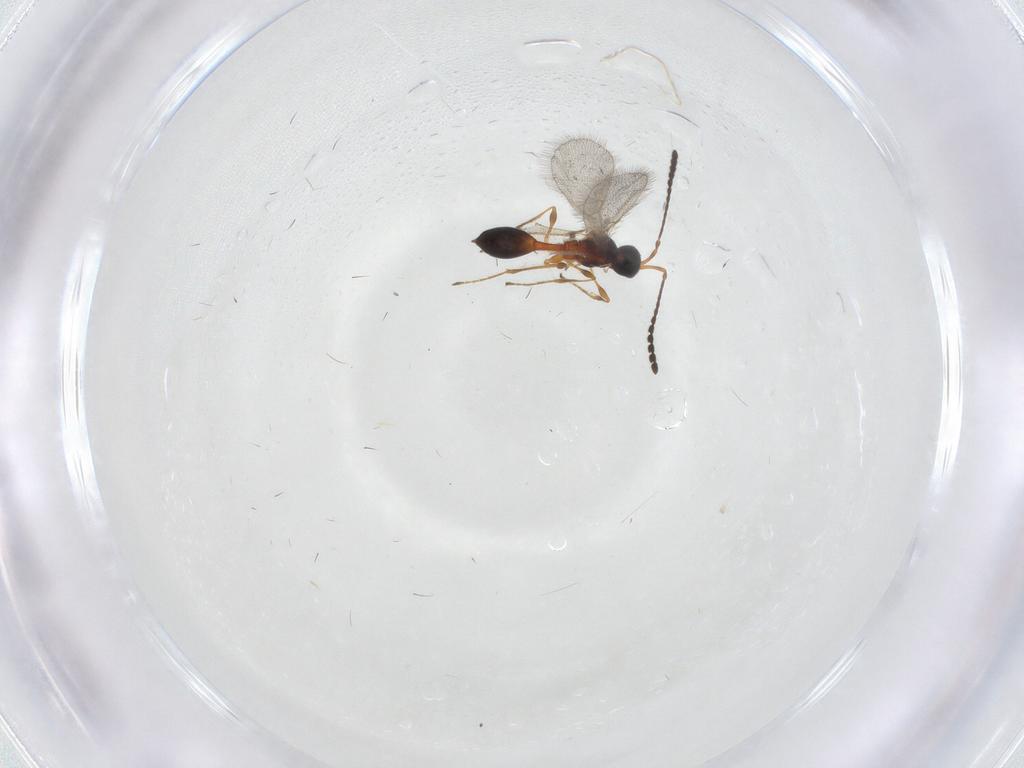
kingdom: Animalia
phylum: Arthropoda
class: Insecta
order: Hymenoptera
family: Diapriidae
